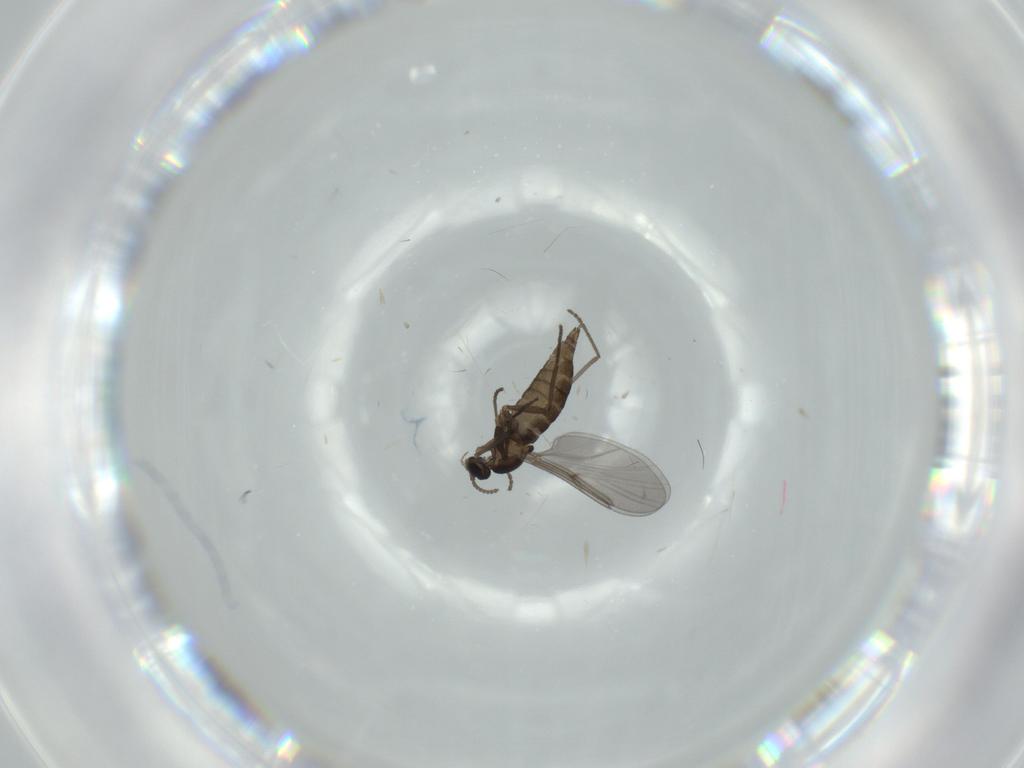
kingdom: Animalia
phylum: Arthropoda
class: Insecta
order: Diptera
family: Cecidomyiidae
